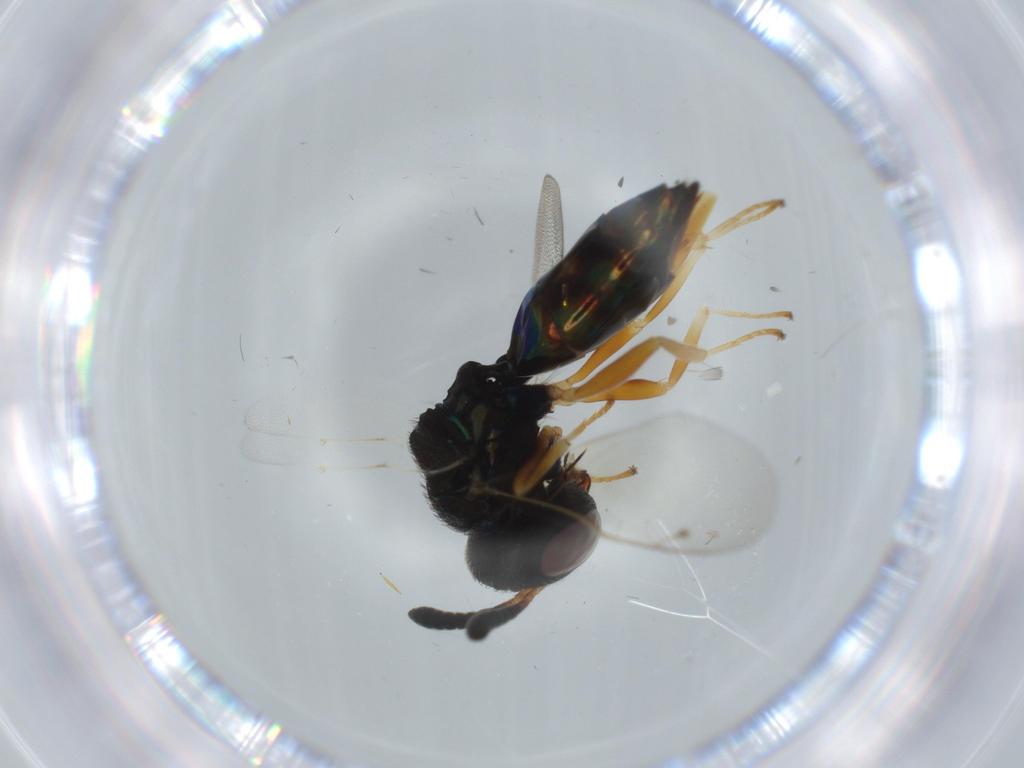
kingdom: Animalia
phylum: Arthropoda
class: Insecta
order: Hymenoptera
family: Agaonidae
